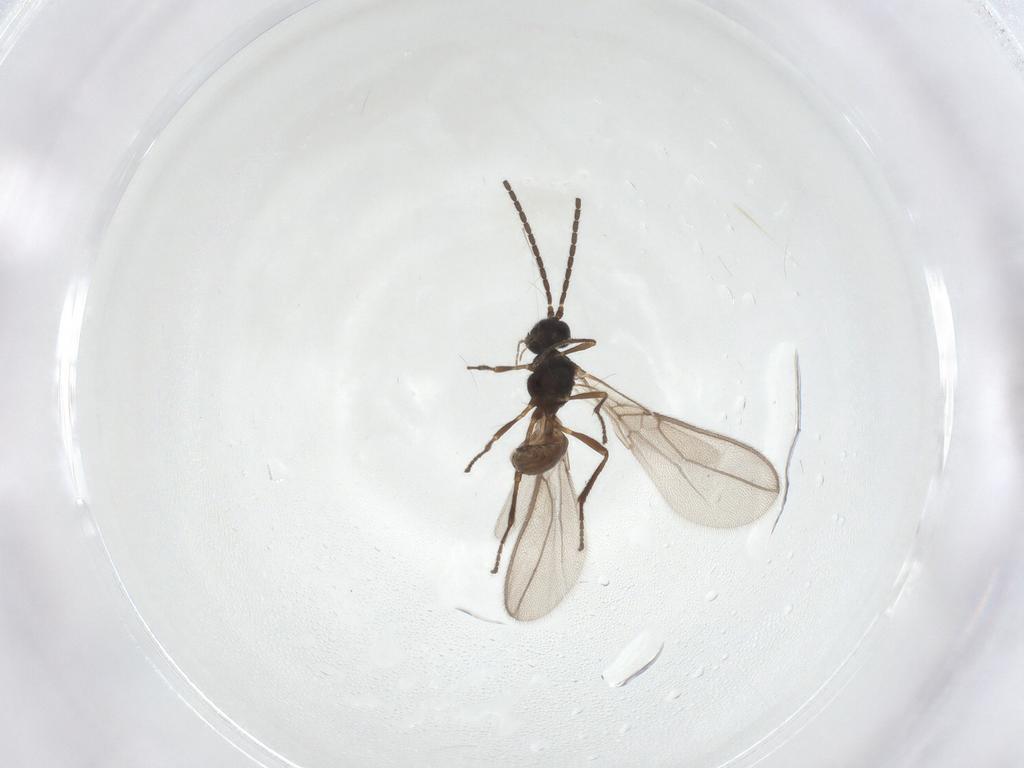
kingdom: Animalia
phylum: Arthropoda
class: Insecta
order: Hymenoptera
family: Braconidae
